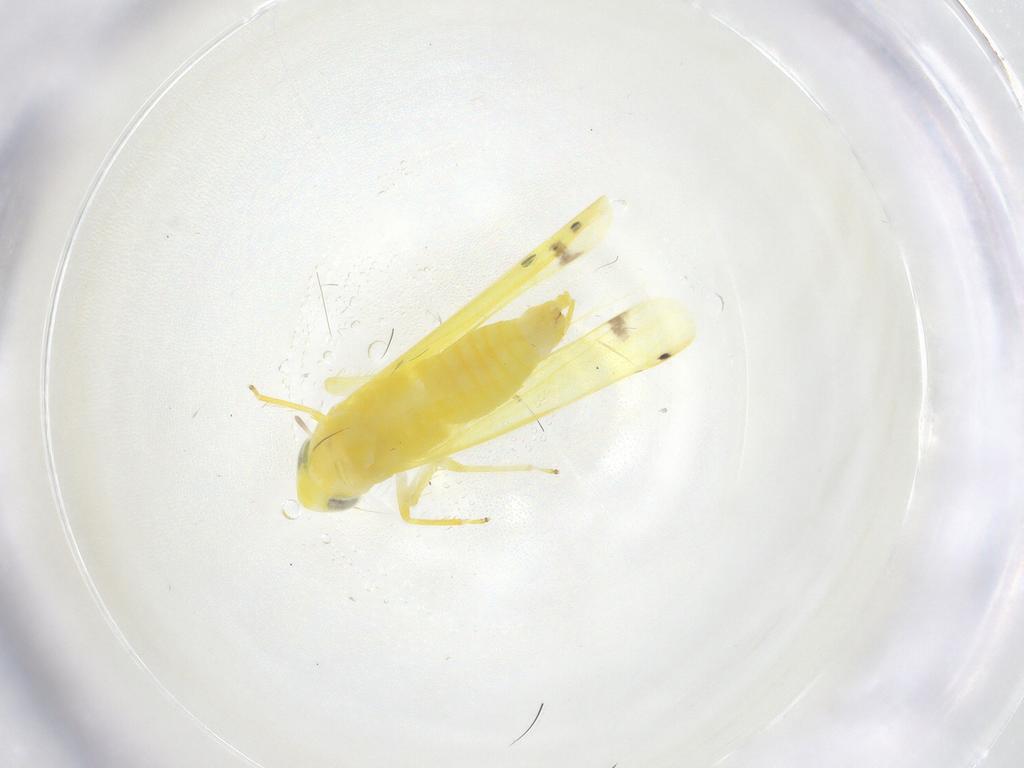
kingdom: Animalia
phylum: Arthropoda
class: Insecta
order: Hemiptera
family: Cicadellidae
